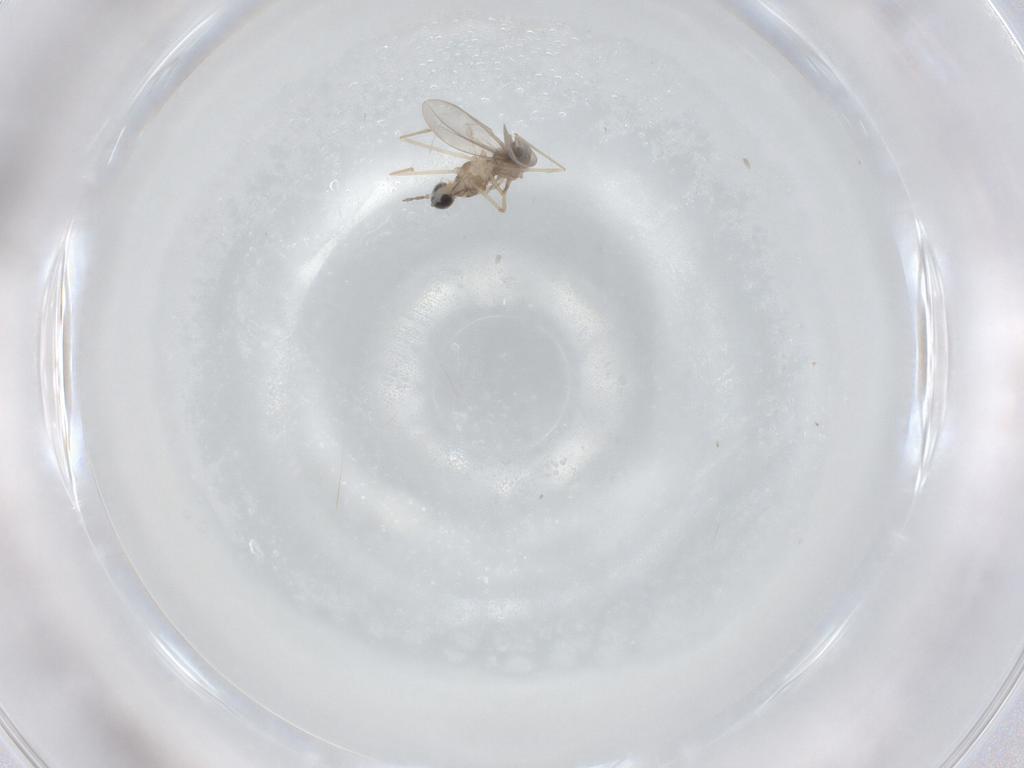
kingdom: Animalia
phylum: Arthropoda
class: Insecta
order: Diptera
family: Cecidomyiidae
